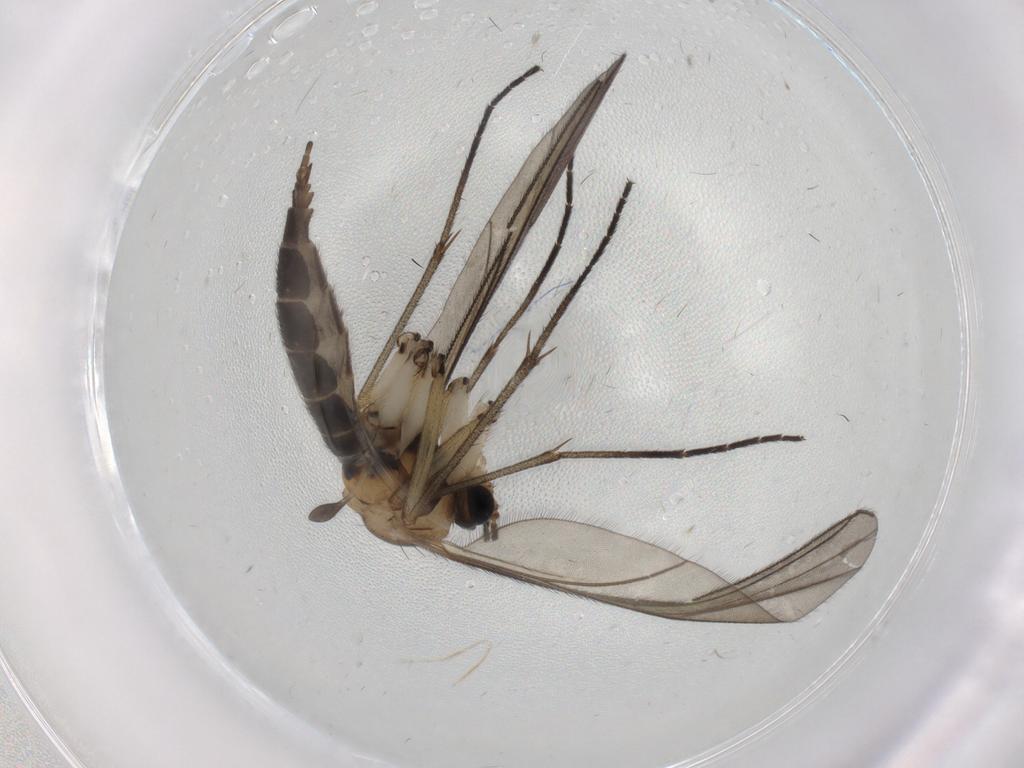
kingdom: Animalia
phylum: Arthropoda
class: Insecta
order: Diptera
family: Sciaridae
